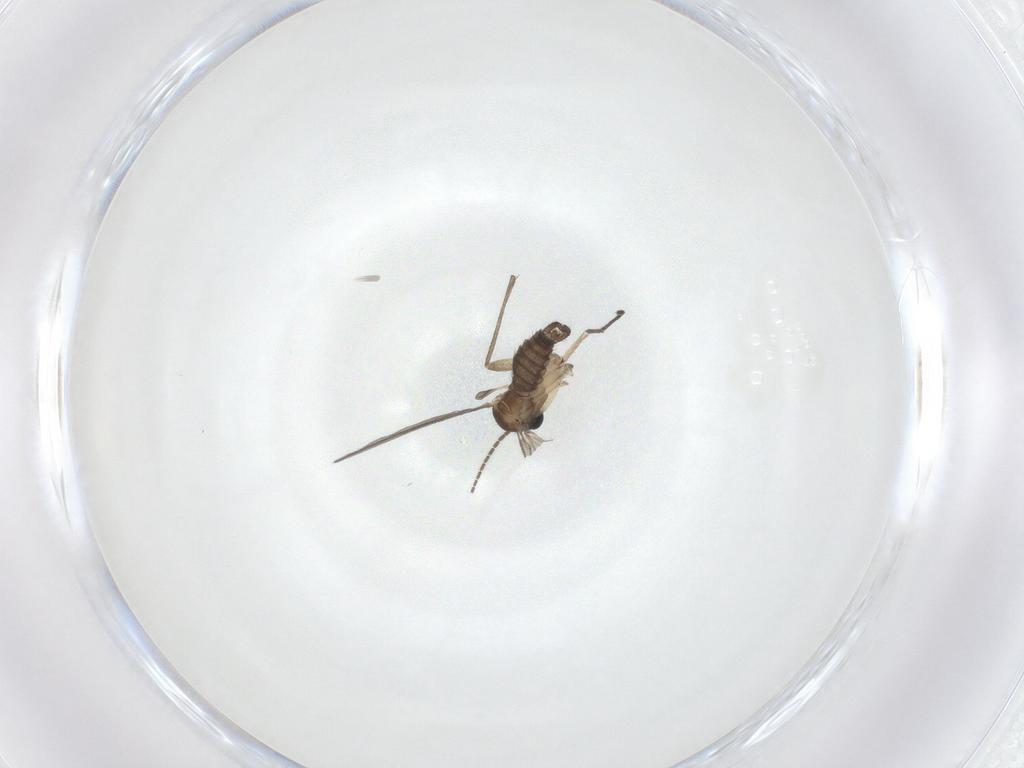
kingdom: Animalia
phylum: Arthropoda
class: Insecta
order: Diptera
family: Sciaridae
